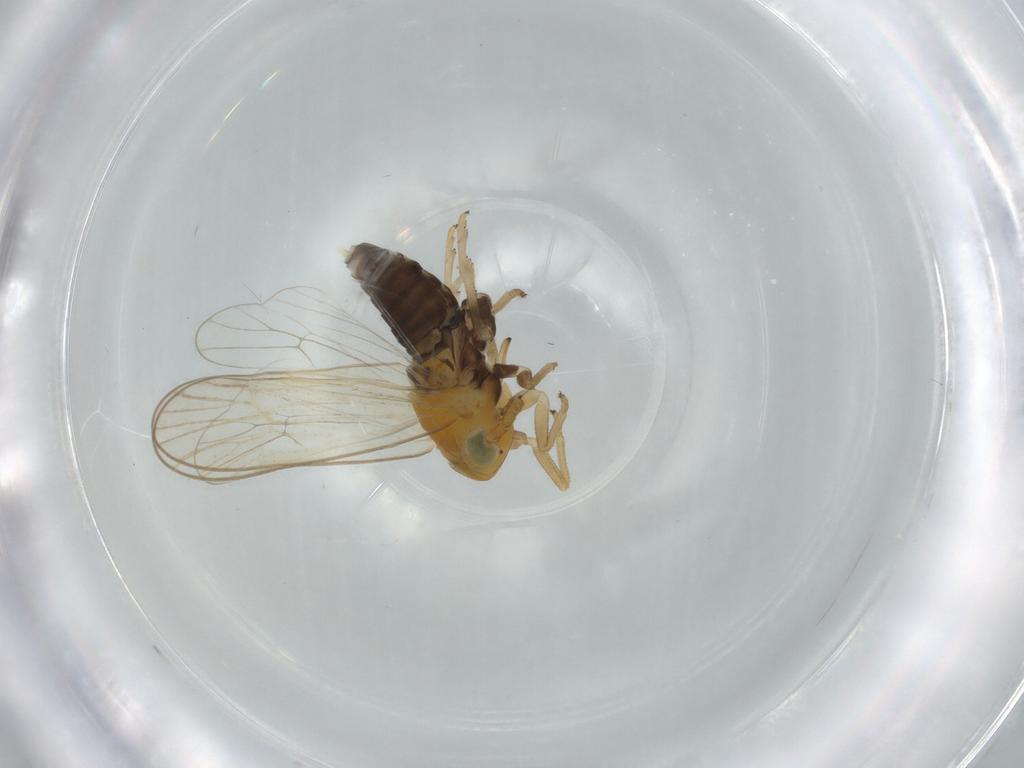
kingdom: Animalia
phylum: Arthropoda
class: Insecta
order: Hemiptera
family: Delphacidae
